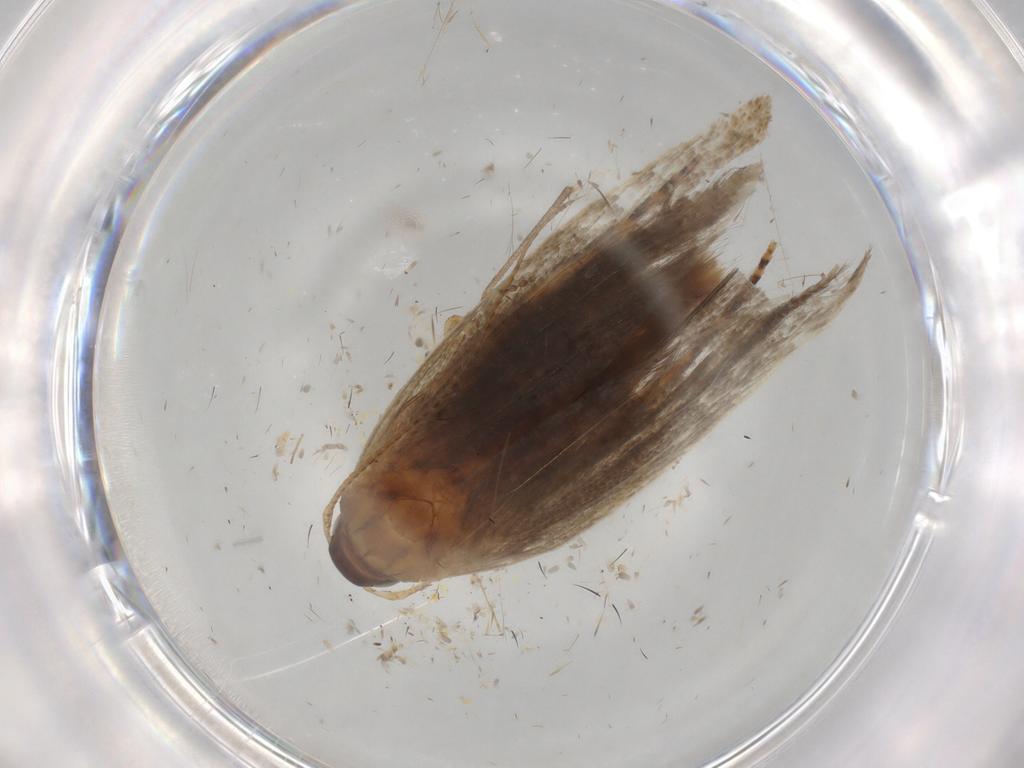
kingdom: Animalia
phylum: Arthropoda
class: Insecta
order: Lepidoptera
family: Gelechiidae
